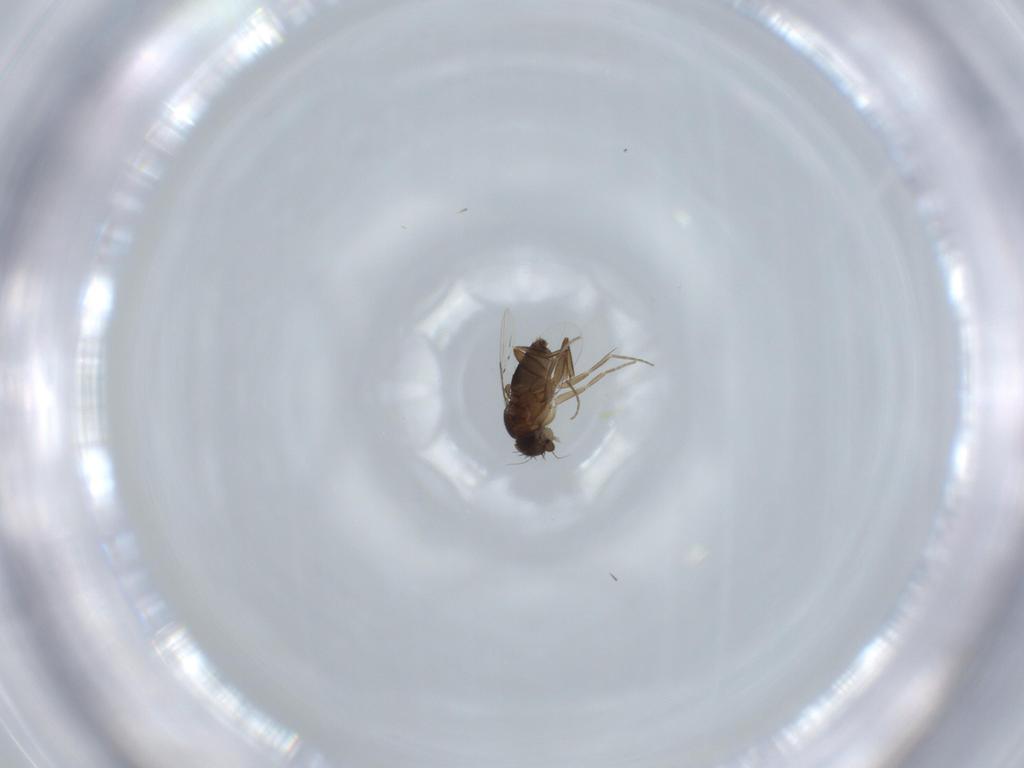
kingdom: Animalia
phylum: Arthropoda
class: Insecta
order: Diptera
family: Phoridae
